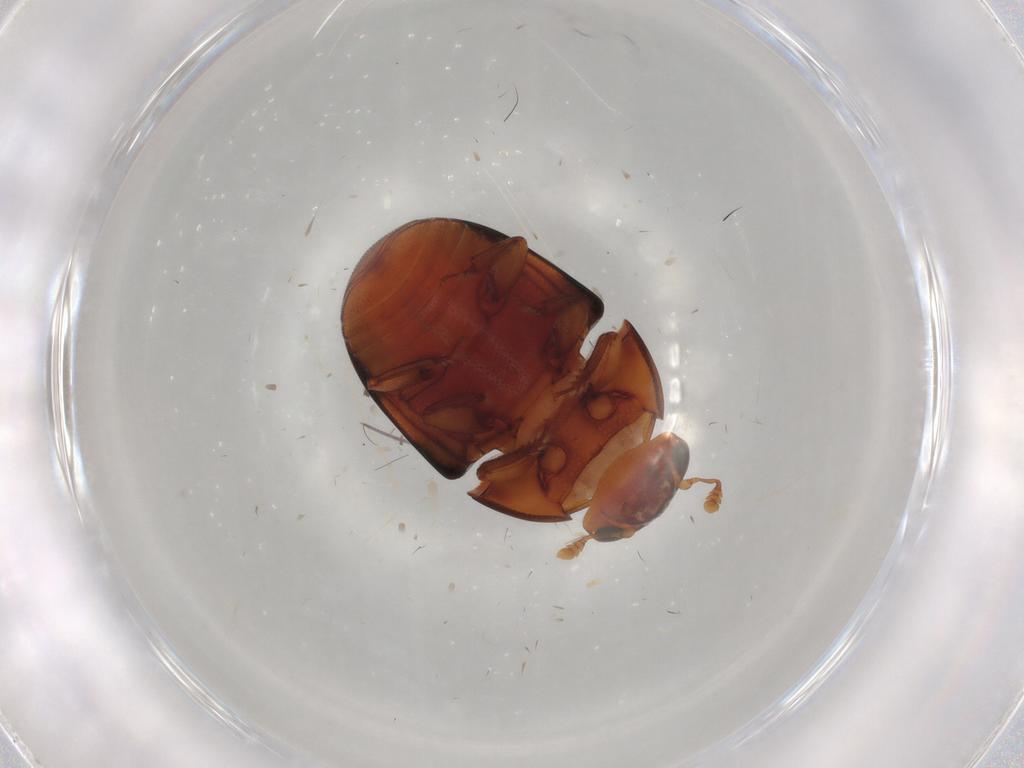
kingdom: Animalia
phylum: Arthropoda
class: Insecta
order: Coleoptera
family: Nitidulidae
